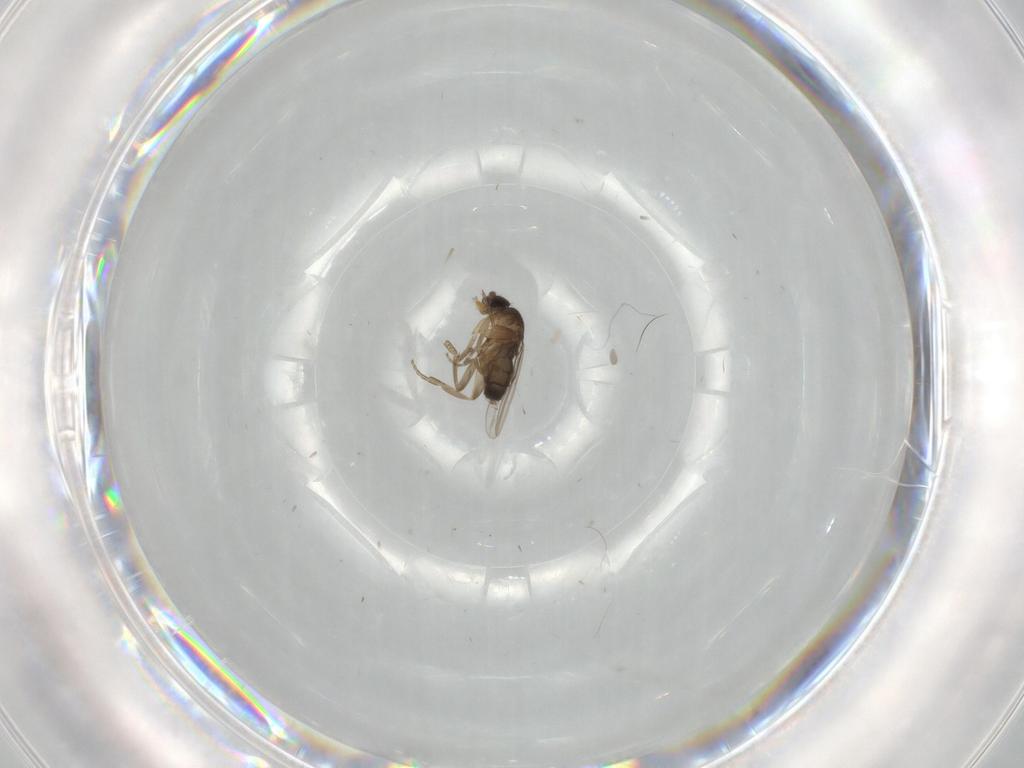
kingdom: Animalia
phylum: Arthropoda
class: Insecta
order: Diptera
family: Phoridae
